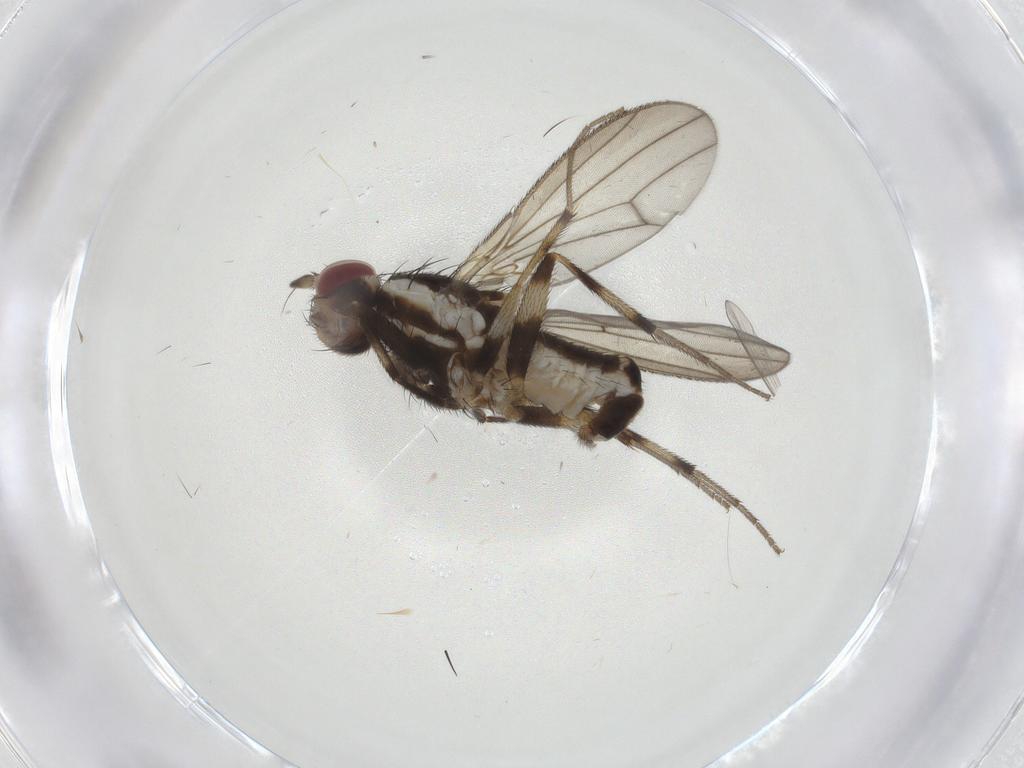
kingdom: Animalia
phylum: Arthropoda
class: Insecta
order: Diptera
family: Pseudopomyzidae
